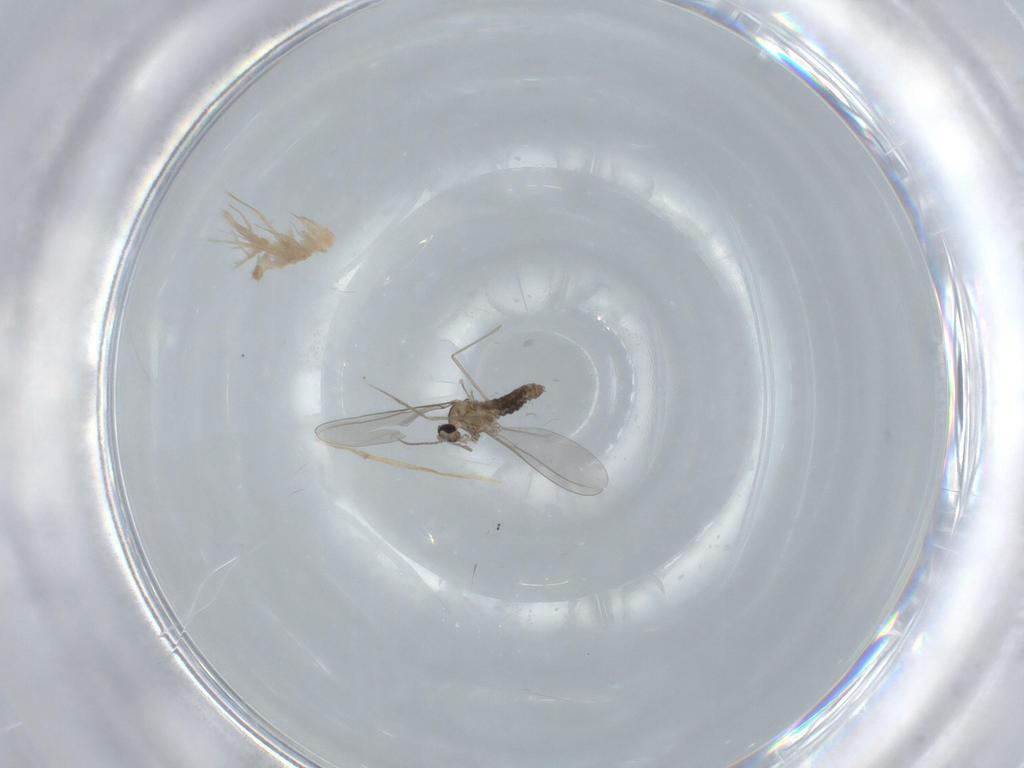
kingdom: Animalia
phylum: Arthropoda
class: Insecta
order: Diptera
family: Cecidomyiidae
